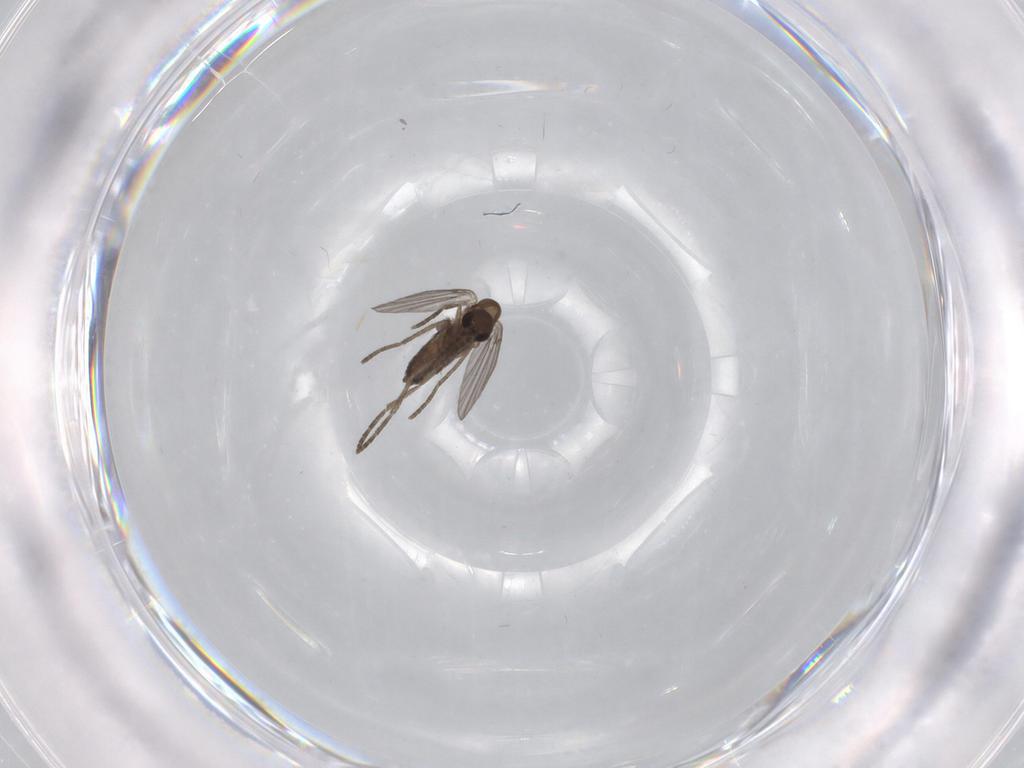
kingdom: Animalia
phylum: Arthropoda
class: Insecta
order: Diptera
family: Chironomidae
